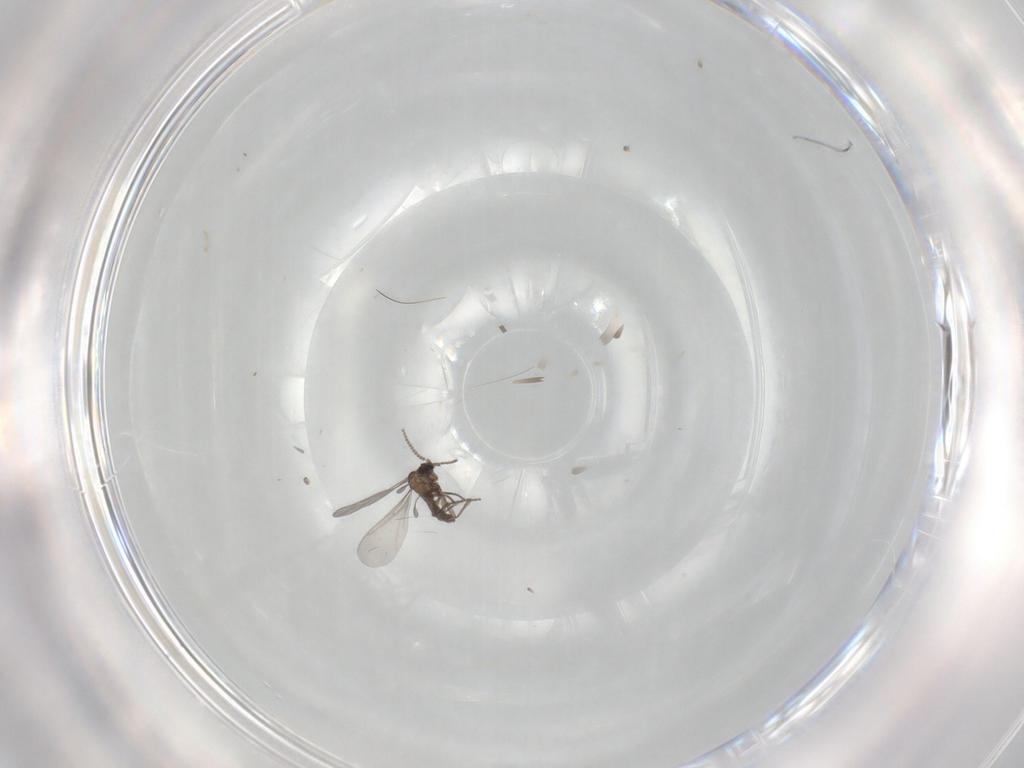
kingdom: Animalia
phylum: Arthropoda
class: Insecta
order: Diptera
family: Sciaridae
